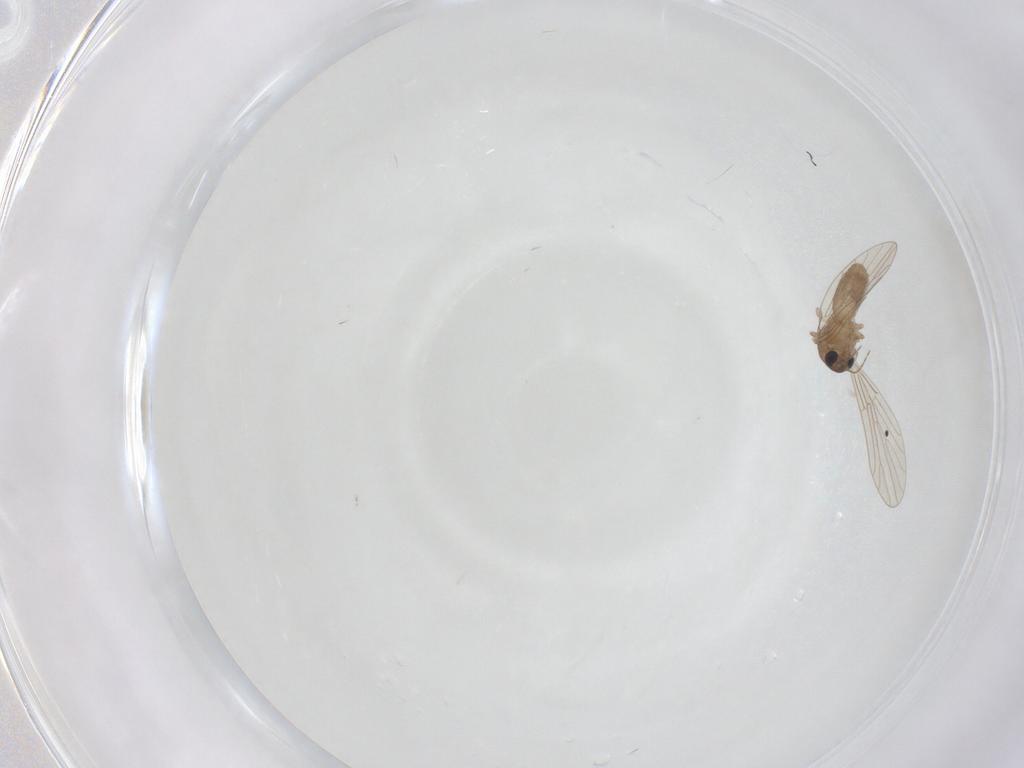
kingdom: Animalia
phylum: Arthropoda
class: Insecta
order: Diptera
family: Psychodidae
